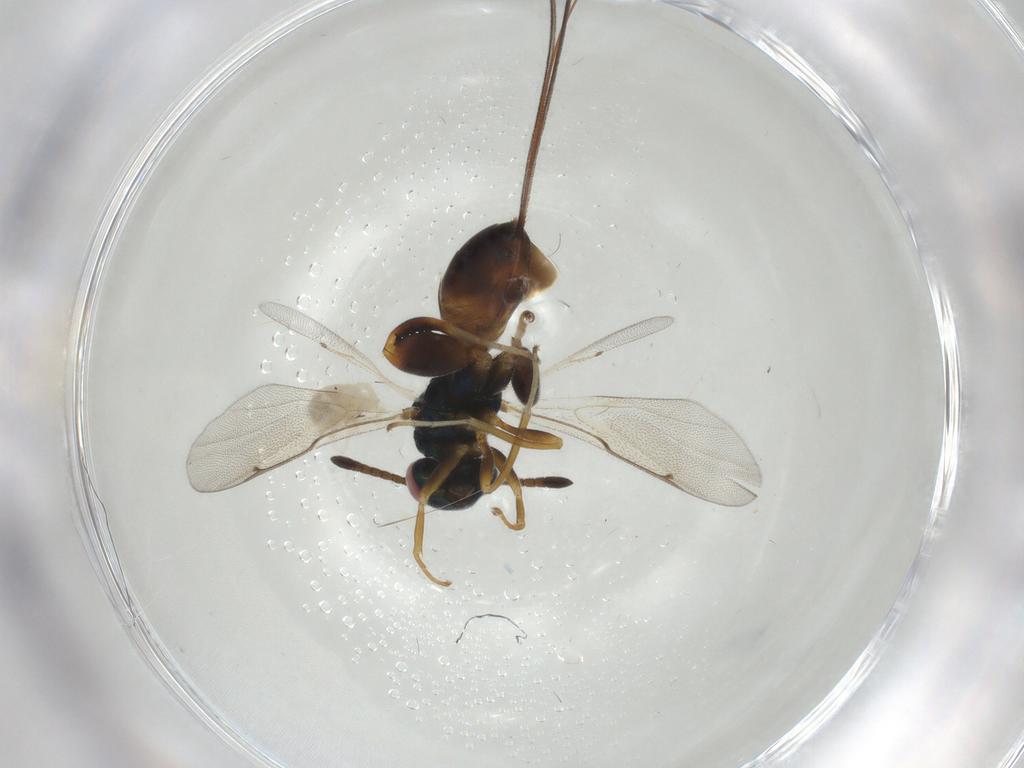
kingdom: Animalia
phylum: Arthropoda
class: Insecta
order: Hymenoptera
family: Torymidae
